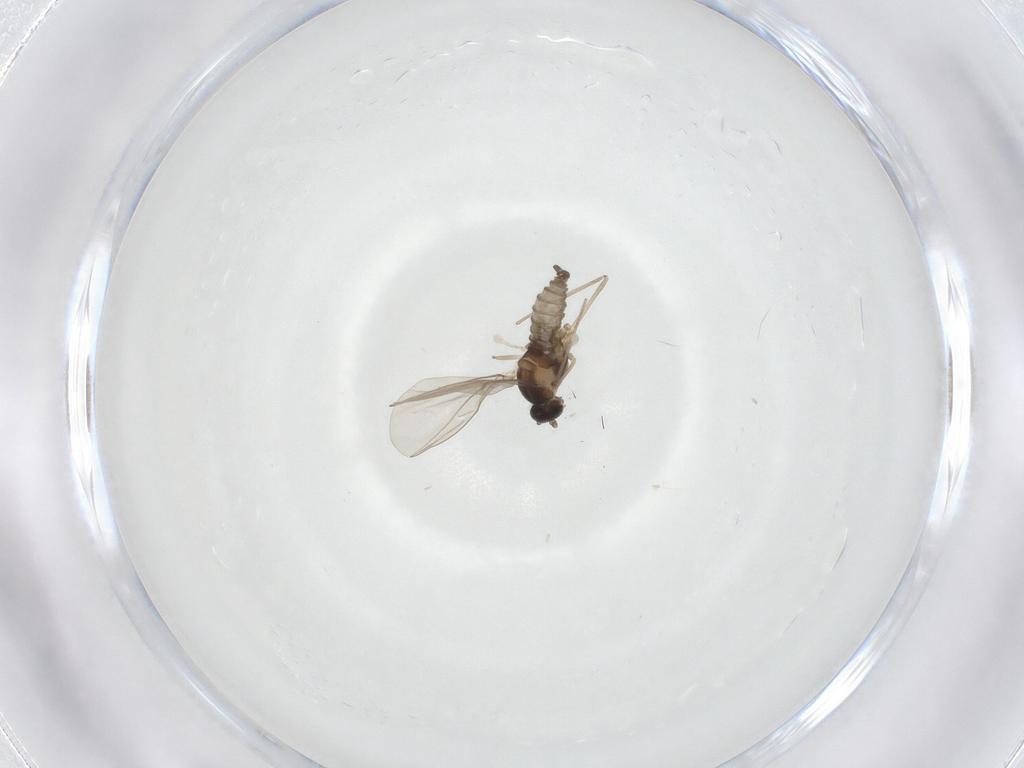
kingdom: Animalia
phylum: Arthropoda
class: Insecta
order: Diptera
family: Cecidomyiidae
